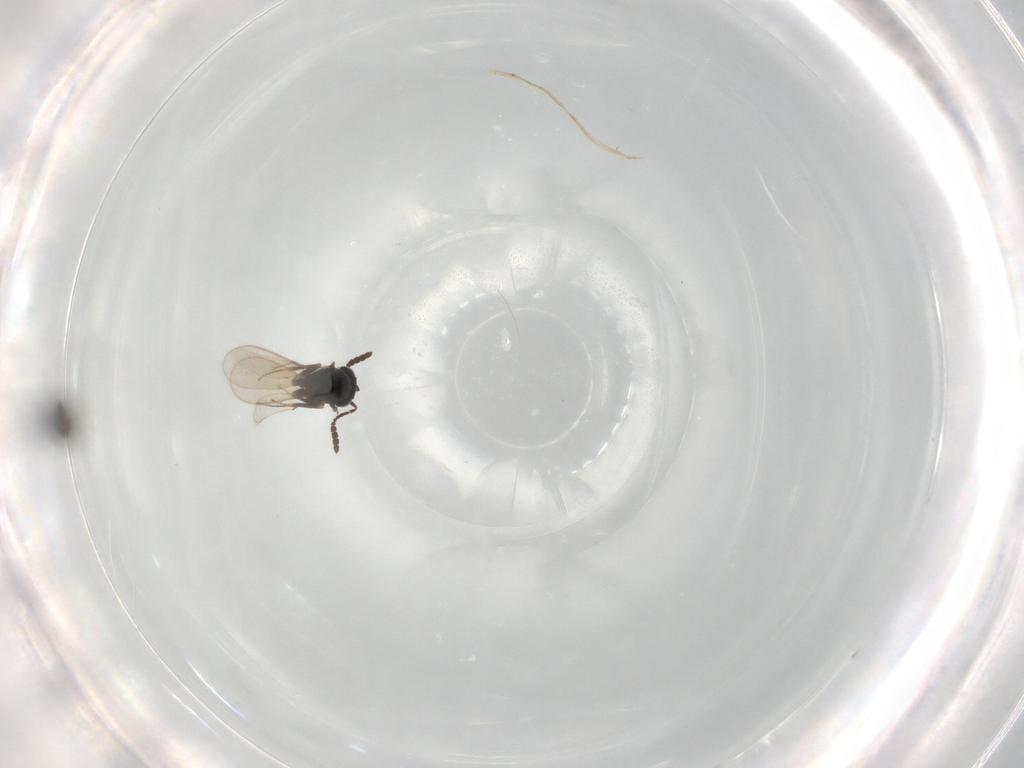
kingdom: Animalia
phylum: Arthropoda
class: Insecta
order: Hymenoptera
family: Scelionidae
